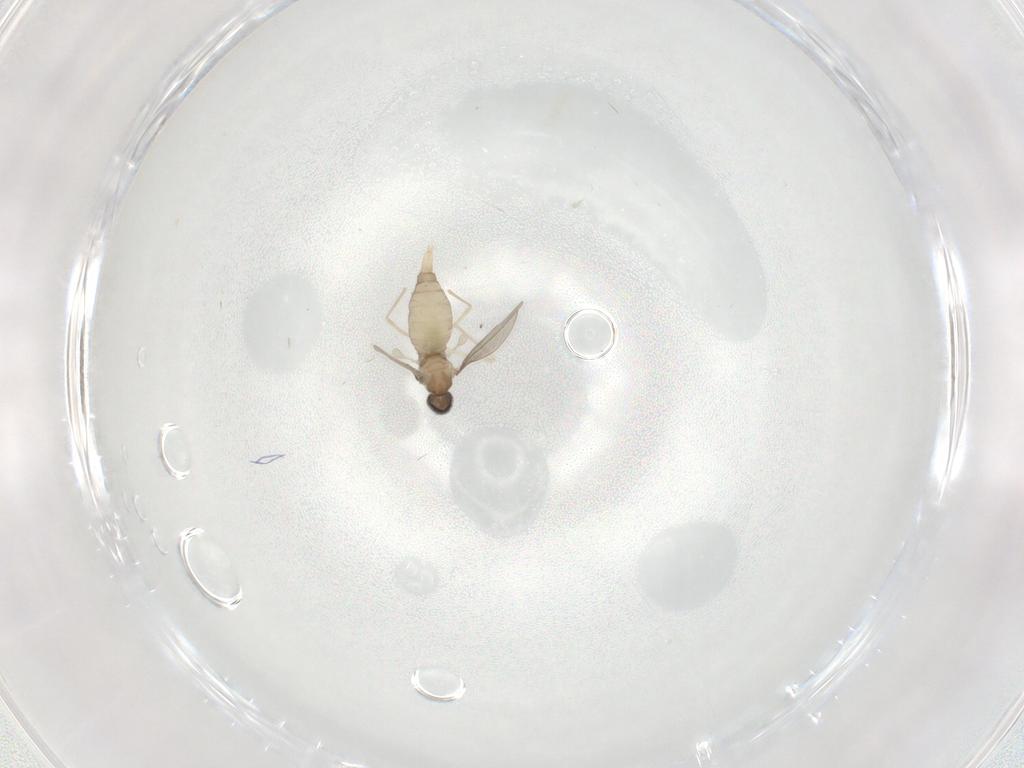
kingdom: Animalia
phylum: Arthropoda
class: Insecta
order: Diptera
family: Cecidomyiidae
